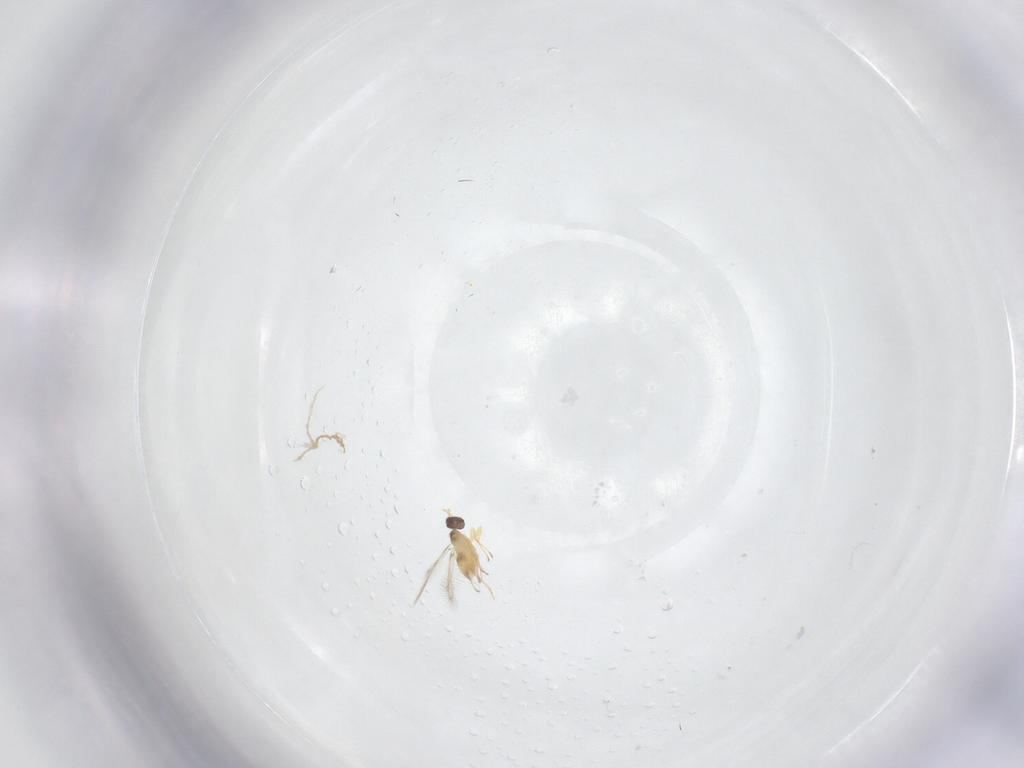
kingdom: Animalia
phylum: Arthropoda
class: Insecta
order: Hymenoptera
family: Mymaridae
